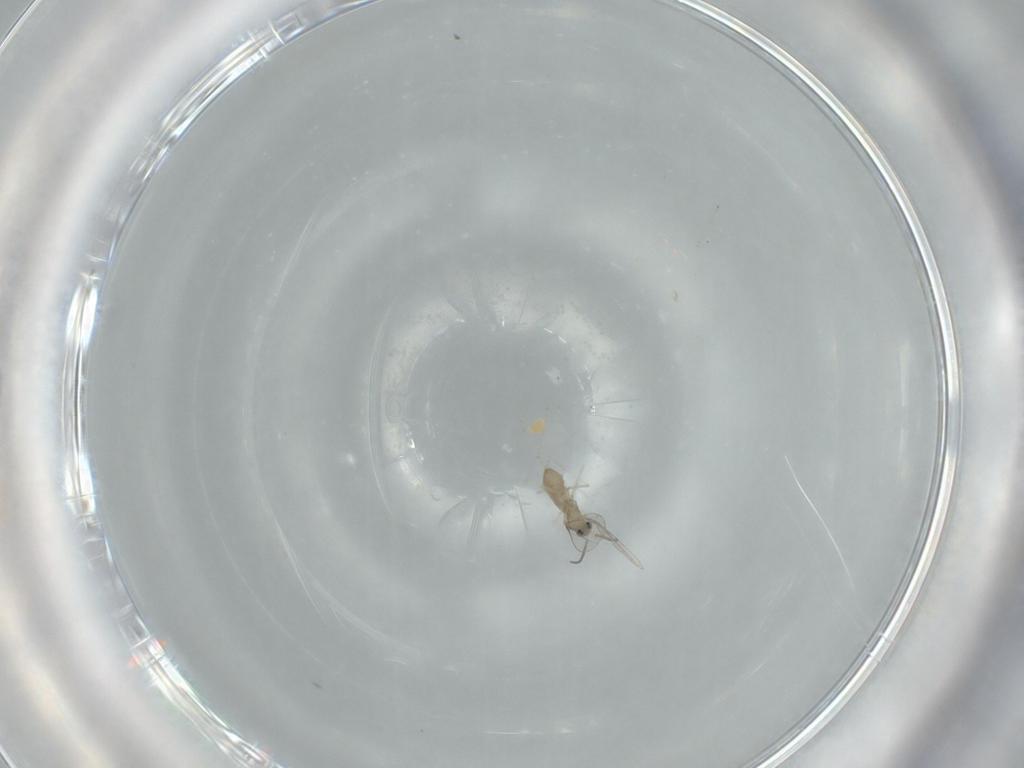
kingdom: Animalia
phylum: Arthropoda
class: Insecta
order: Diptera
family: Cecidomyiidae
